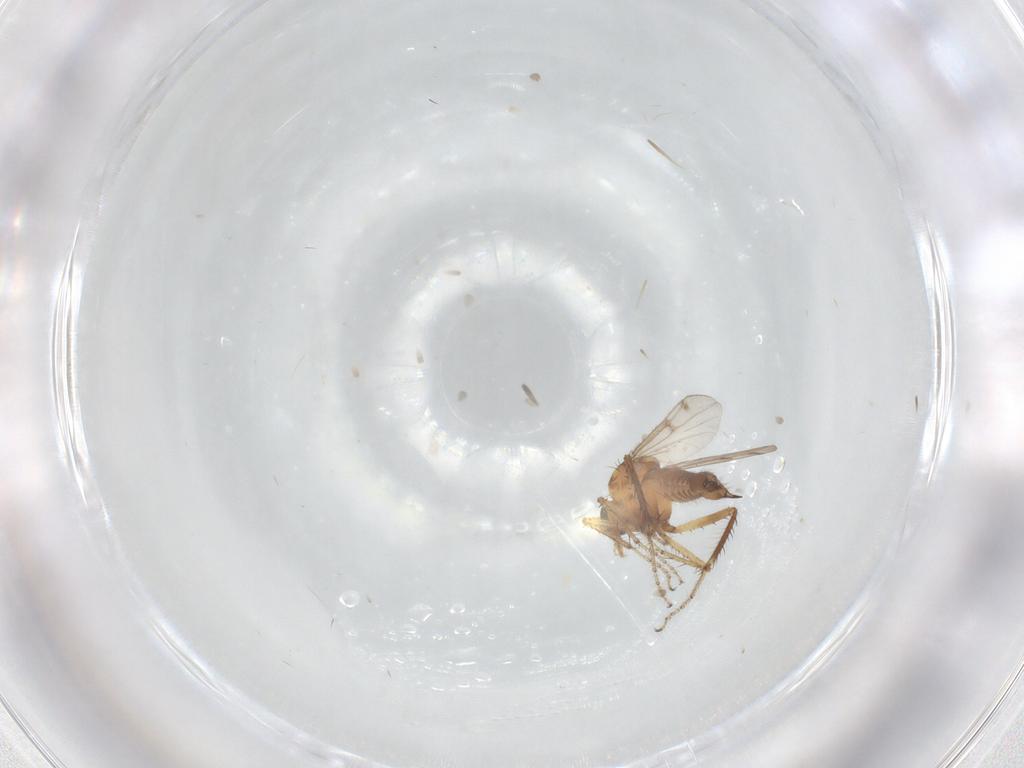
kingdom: Animalia
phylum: Arthropoda
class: Insecta
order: Diptera
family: Ceratopogonidae
